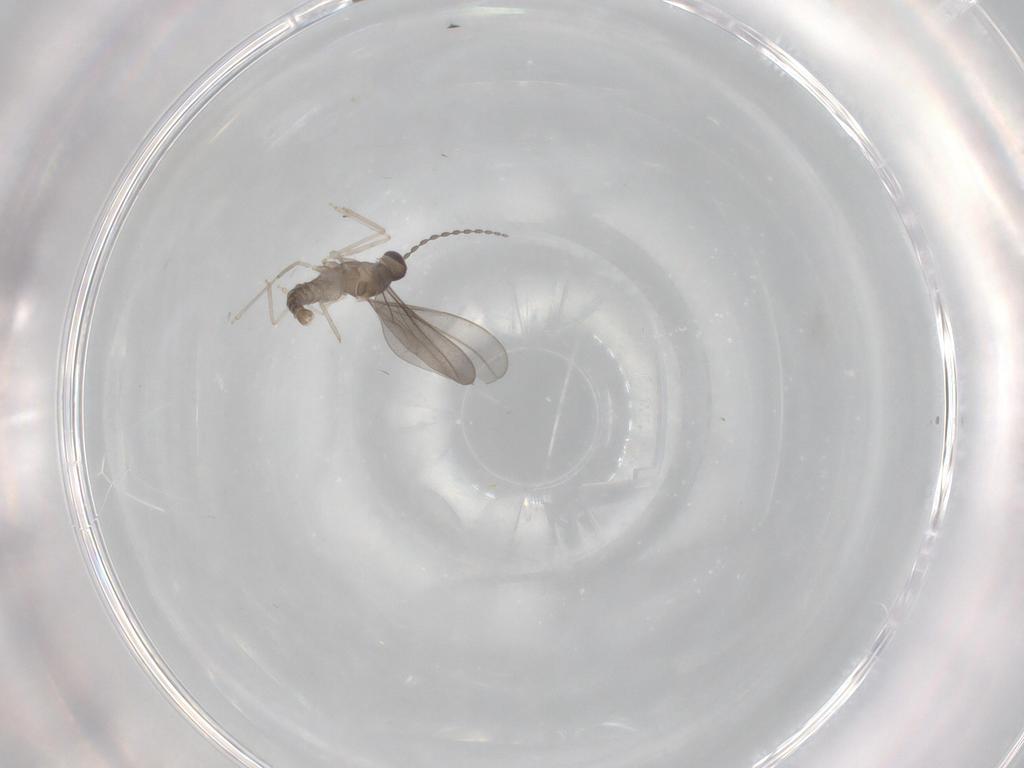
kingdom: Animalia
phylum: Arthropoda
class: Insecta
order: Diptera
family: Cecidomyiidae
